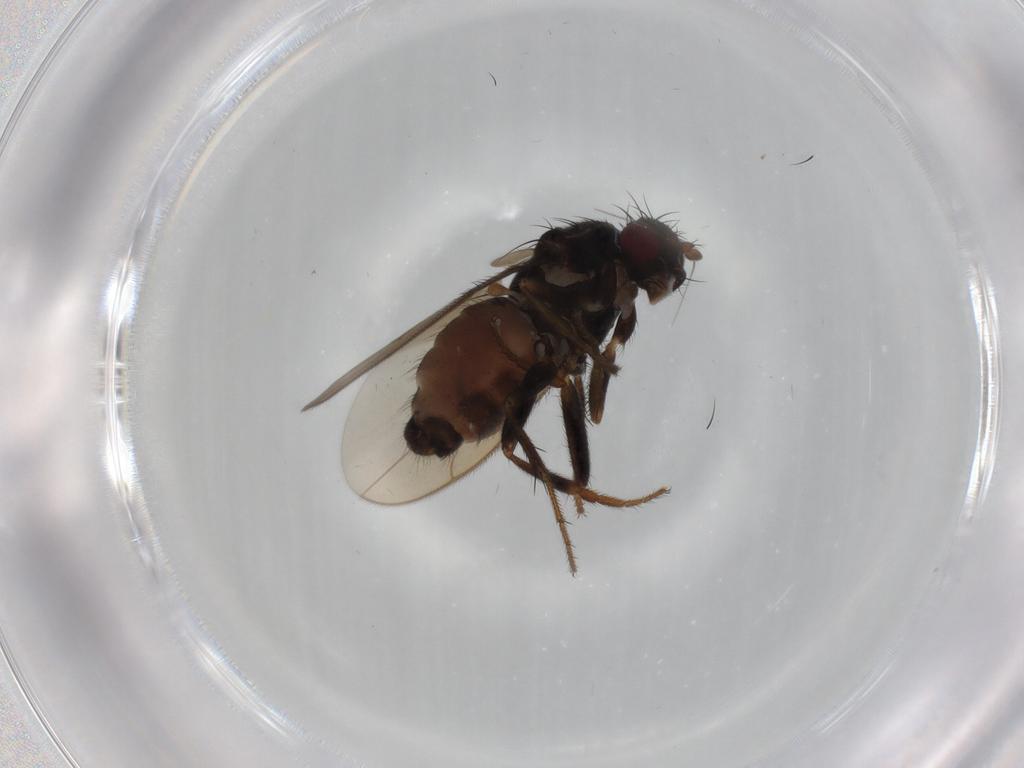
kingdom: Animalia
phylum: Arthropoda
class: Insecta
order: Diptera
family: Sphaeroceridae
